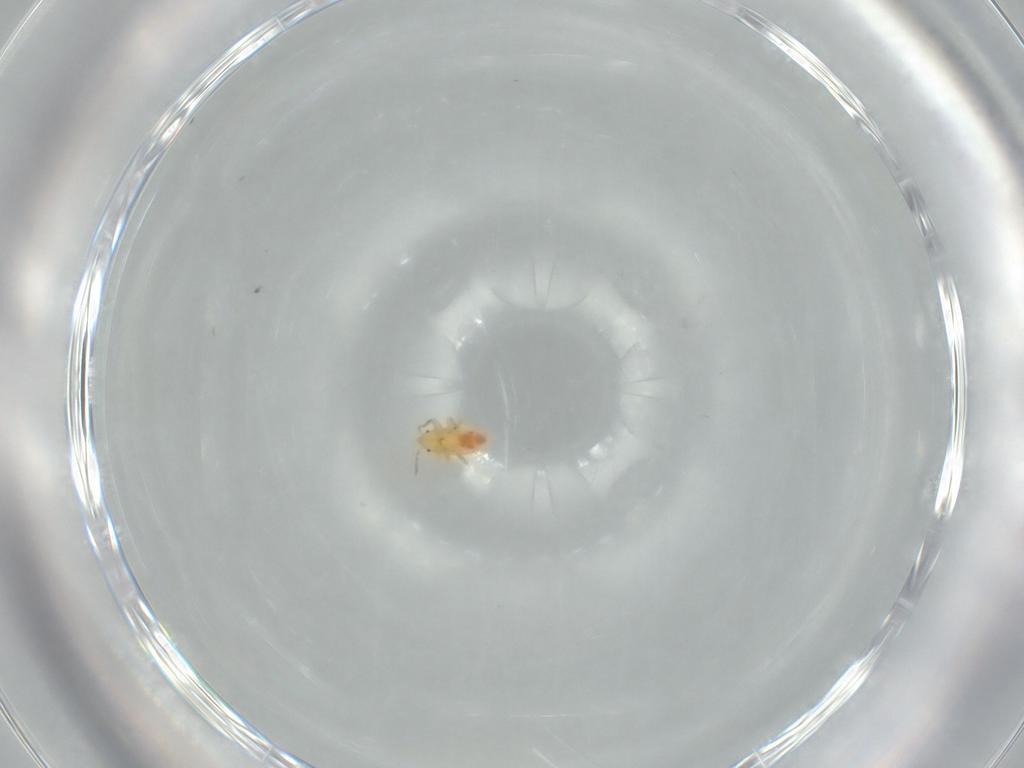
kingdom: Animalia
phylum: Arthropoda
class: Insecta
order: Hemiptera
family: Anthocoridae
